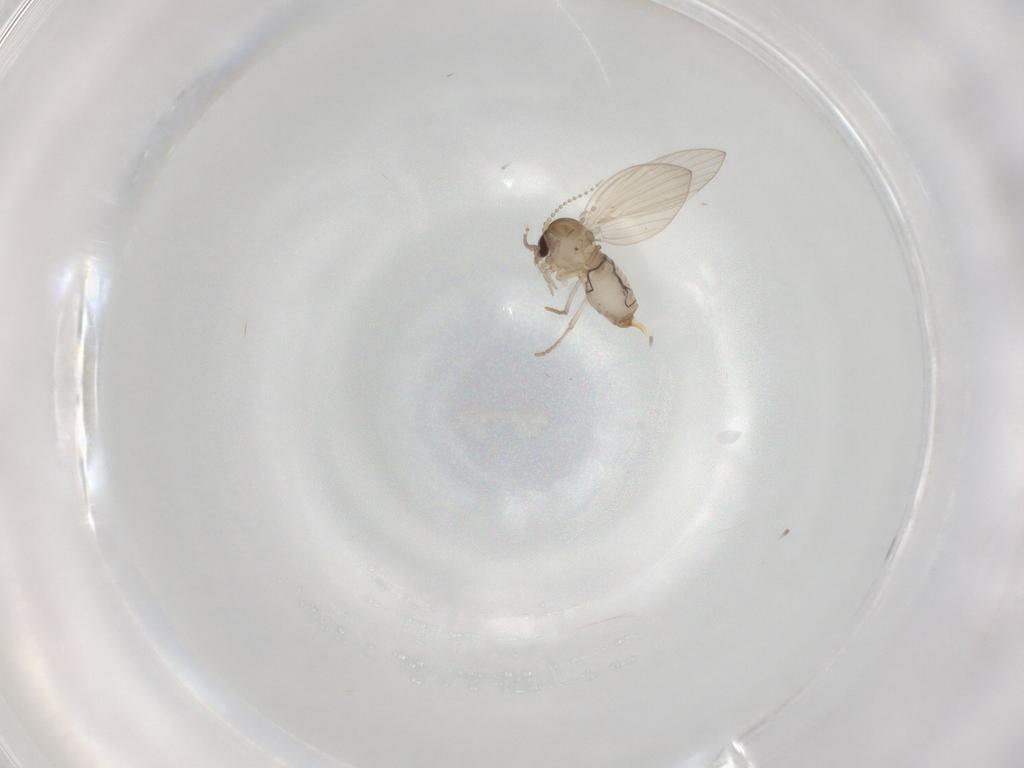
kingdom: Animalia
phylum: Arthropoda
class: Insecta
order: Diptera
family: Psychodidae
